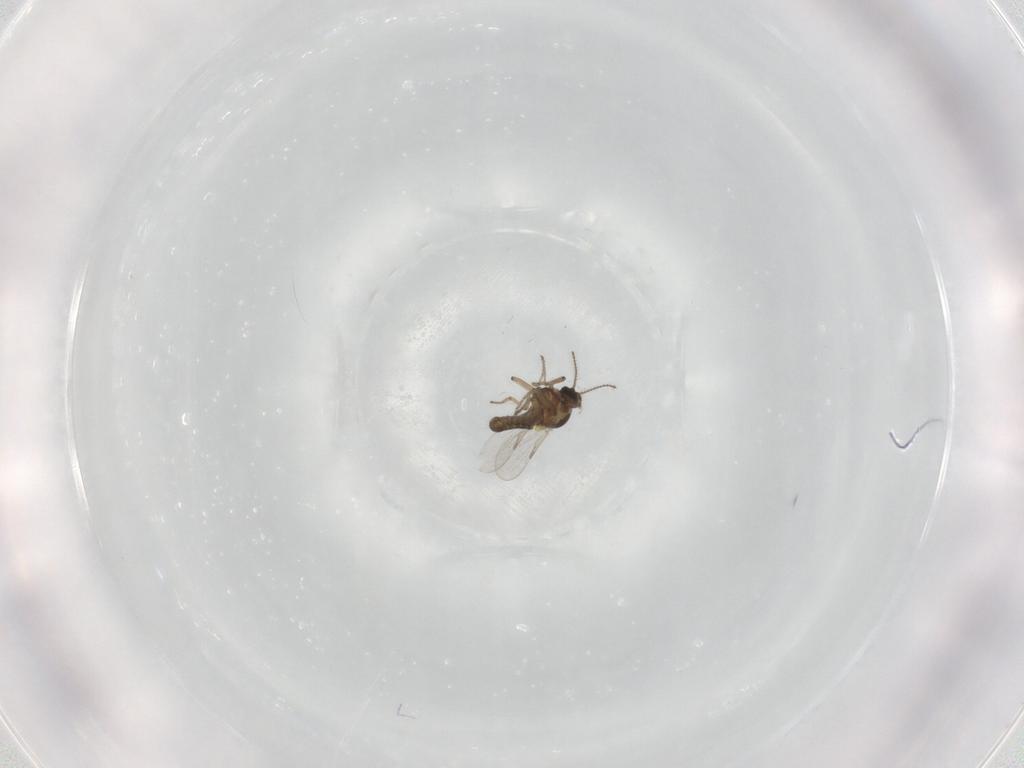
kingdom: Animalia
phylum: Arthropoda
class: Insecta
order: Diptera
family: Ceratopogonidae
